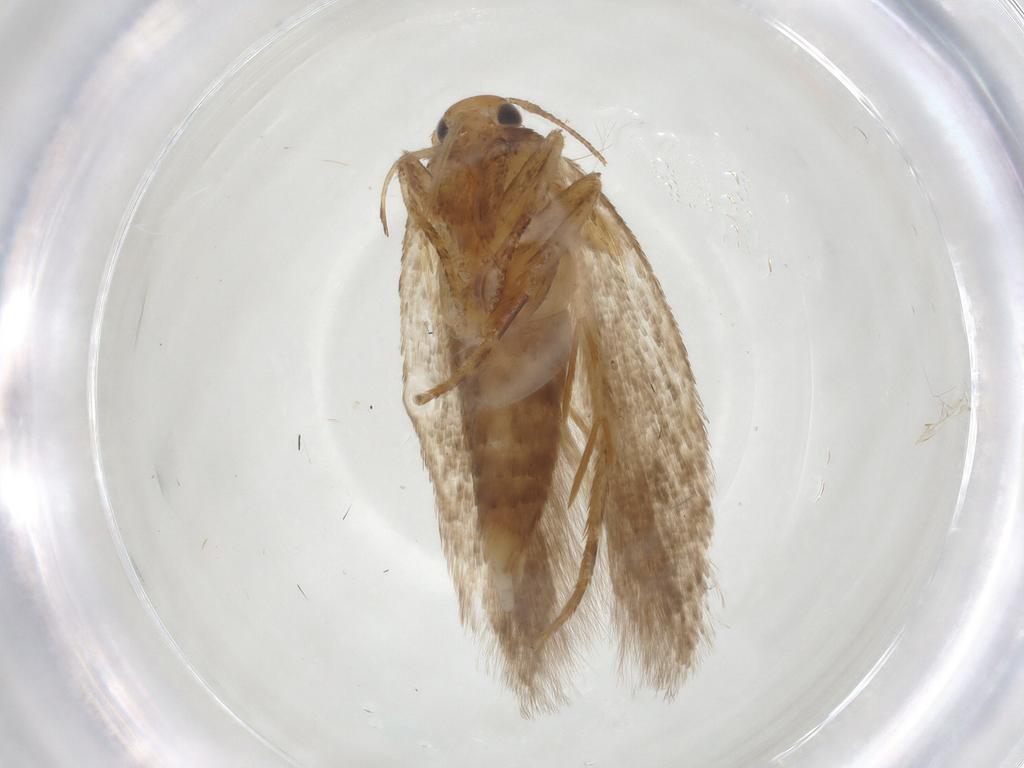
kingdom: Animalia
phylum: Arthropoda
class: Insecta
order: Lepidoptera
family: Gelechiidae
